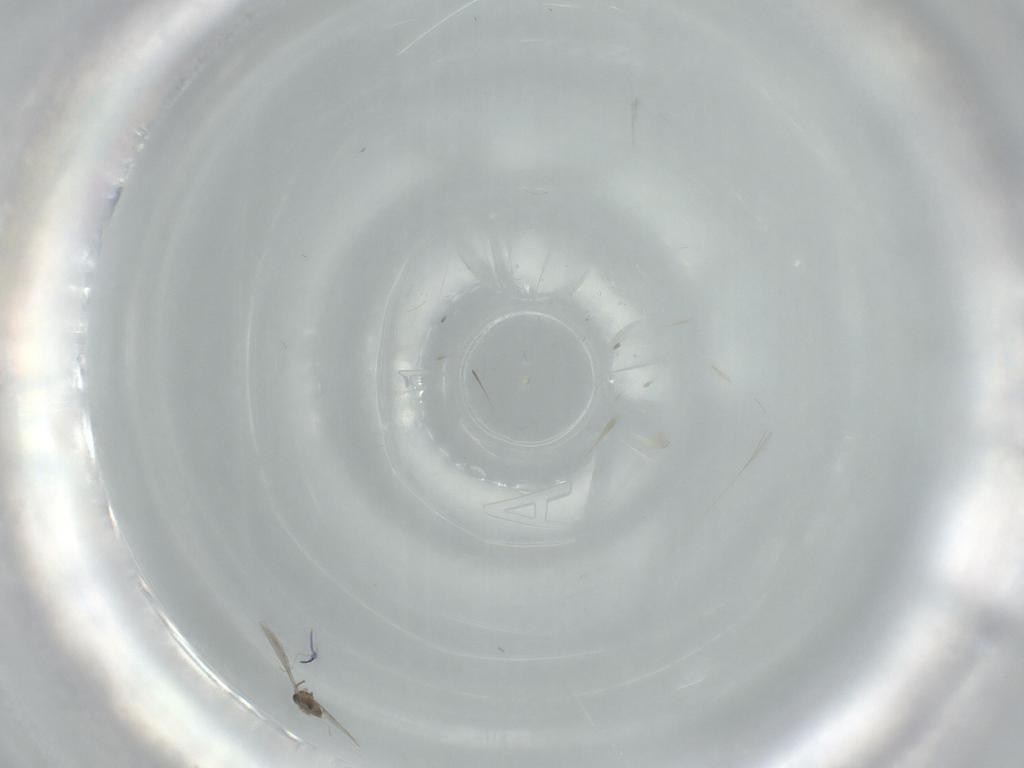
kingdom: Animalia
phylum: Arthropoda
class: Insecta
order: Diptera
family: Cecidomyiidae
